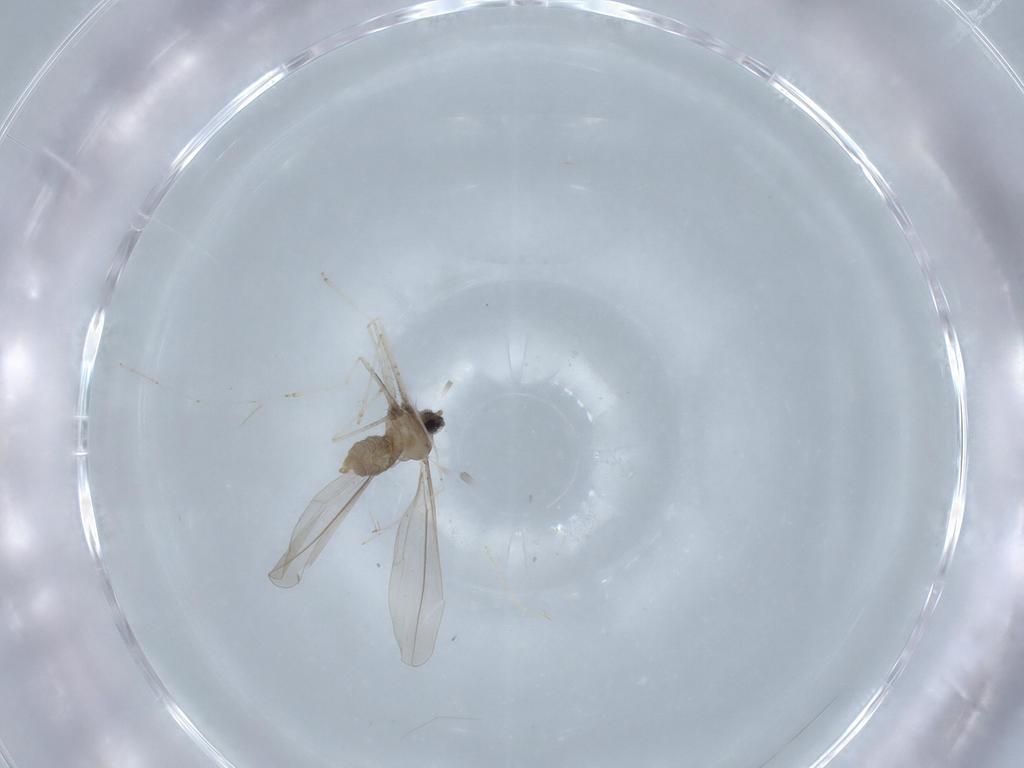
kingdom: Animalia
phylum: Arthropoda
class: Insecta
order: Diptera
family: Cecidomyiidae
